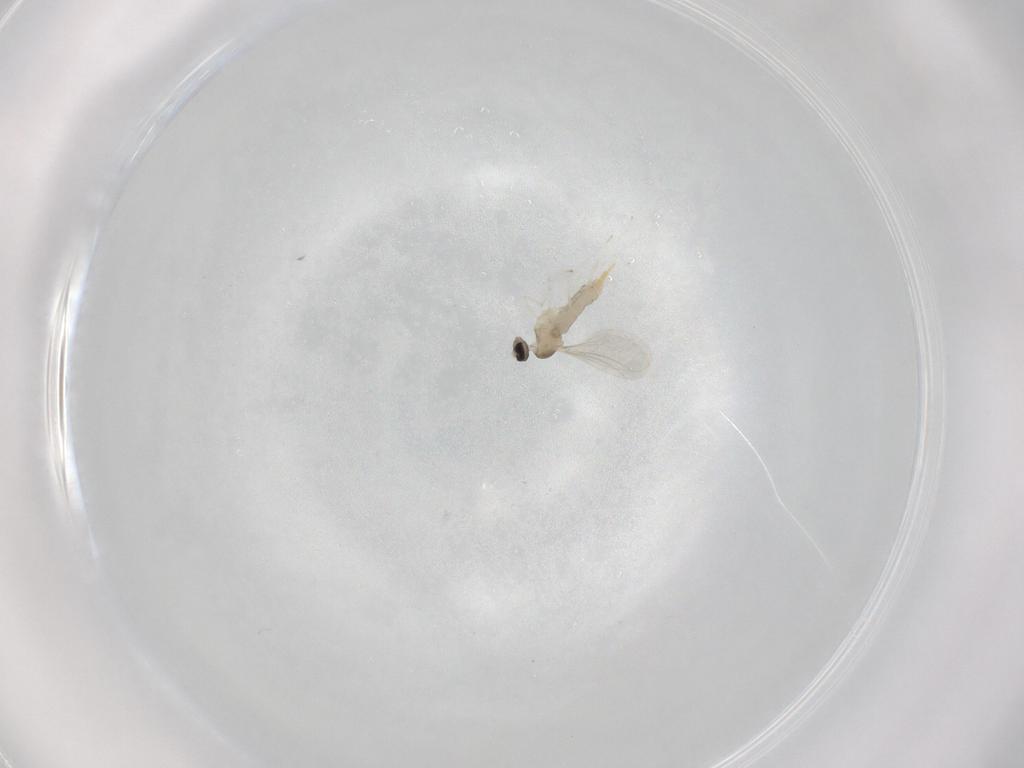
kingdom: Animalia
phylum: Arthropoda
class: Insecta
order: Diptera
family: Cecidomyiidae
